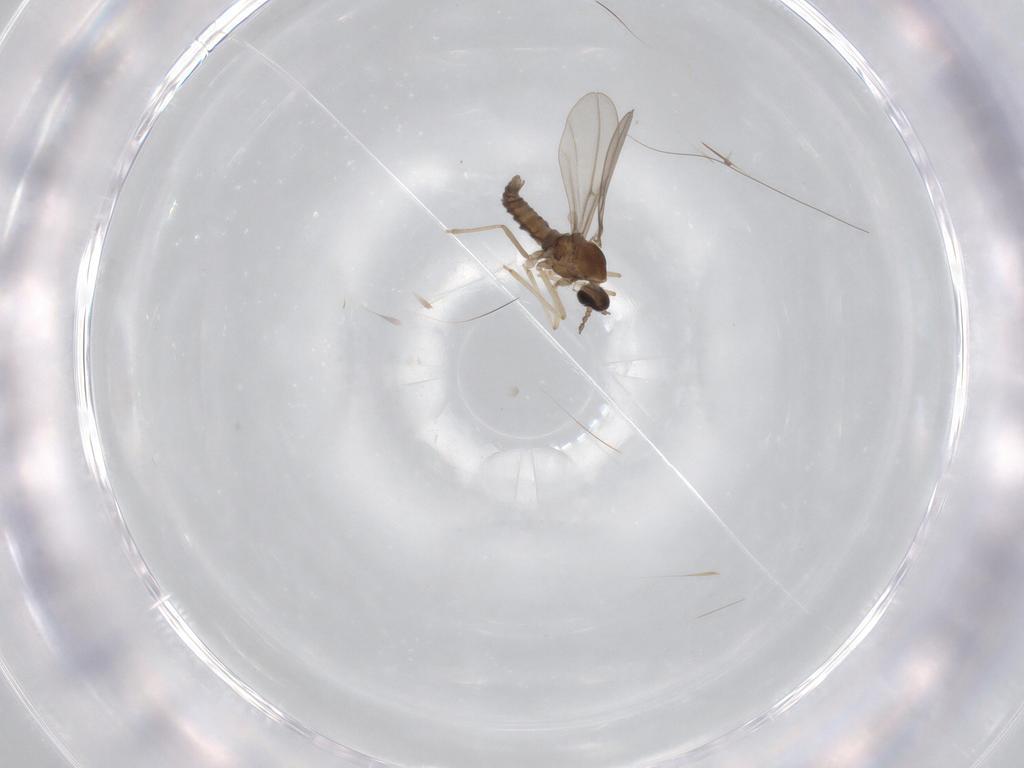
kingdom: Animalia
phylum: Arthropoda
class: Insecta
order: Diptera
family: Cecidomyiidae
